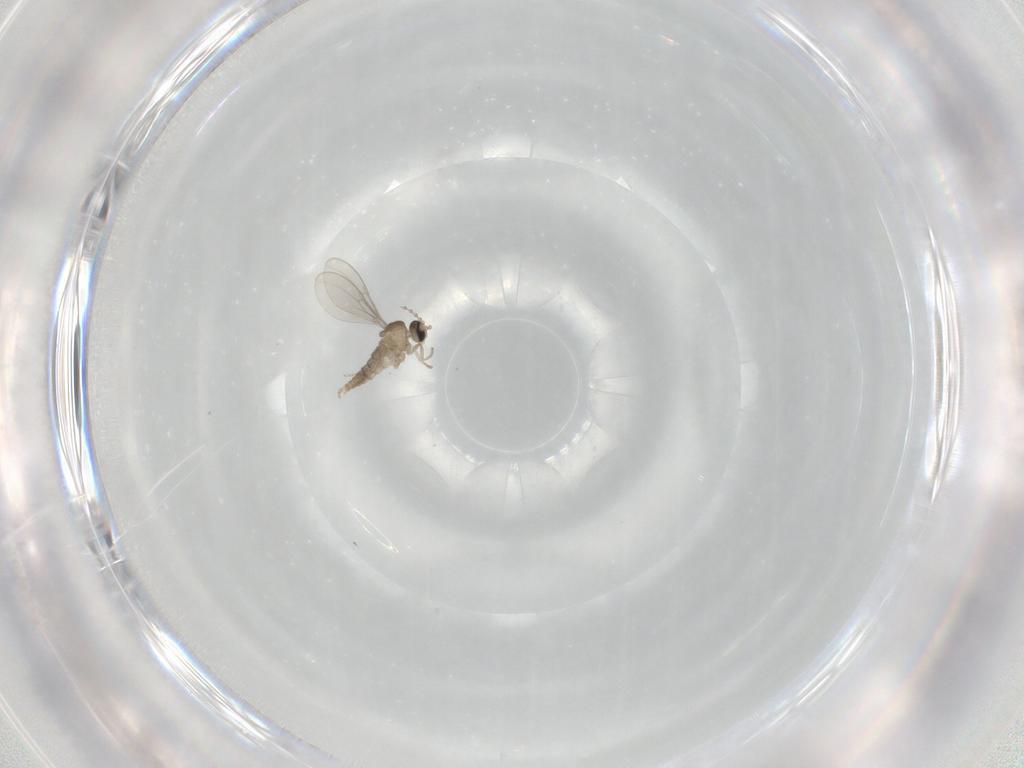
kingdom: Animalia
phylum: Arthropoda
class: Insecta
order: Diptera
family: Cecidomyiidae
